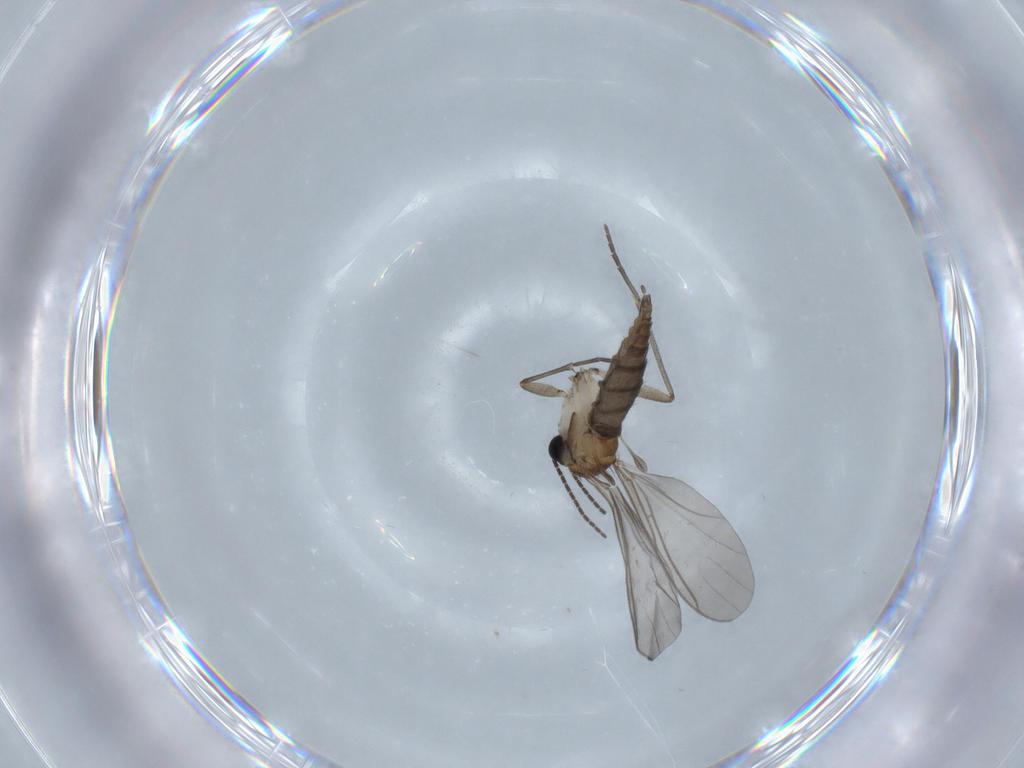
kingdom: Animalia
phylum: Arthropoda
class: Insecta
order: Diptera
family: Sciaridae
